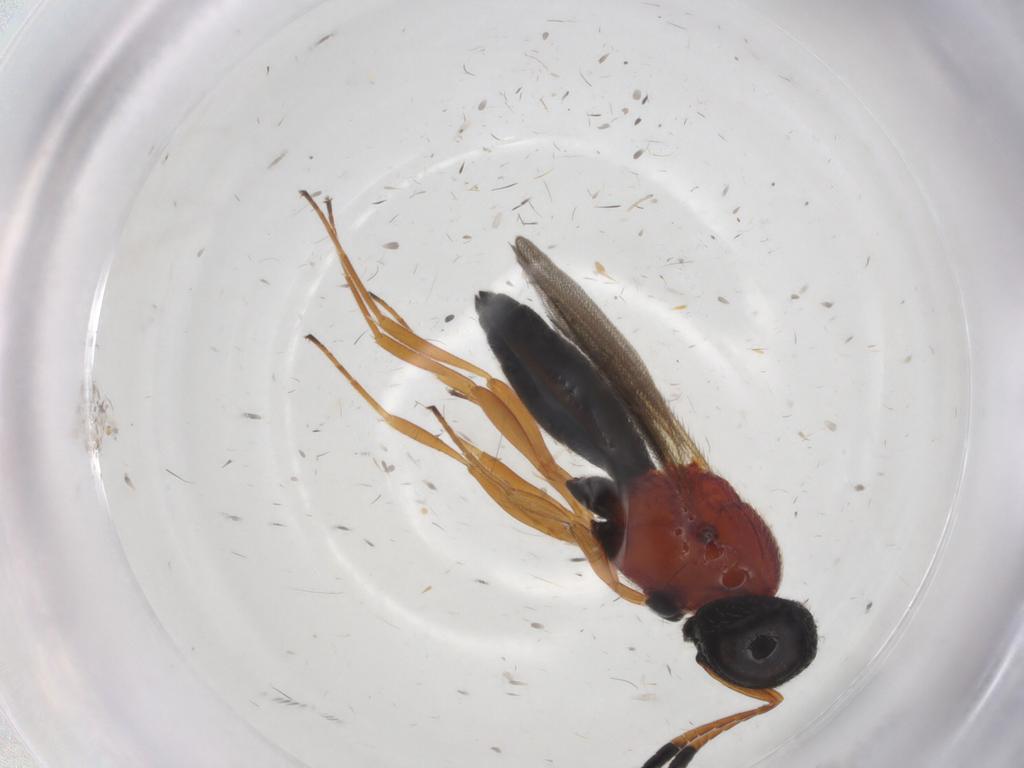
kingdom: Animalia
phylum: Arthropoda
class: Insecta
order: Hymenoptera
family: Scelionidae
